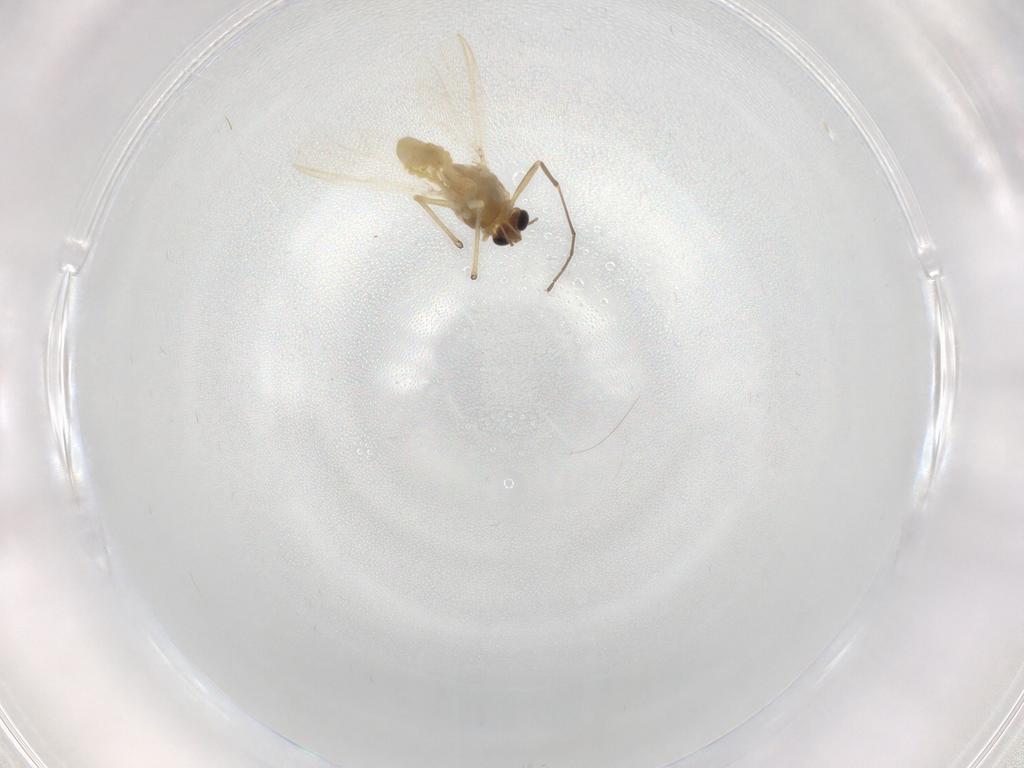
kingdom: Animalia
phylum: Arthropoda
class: Insecta
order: Diptera
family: Chironomidae
